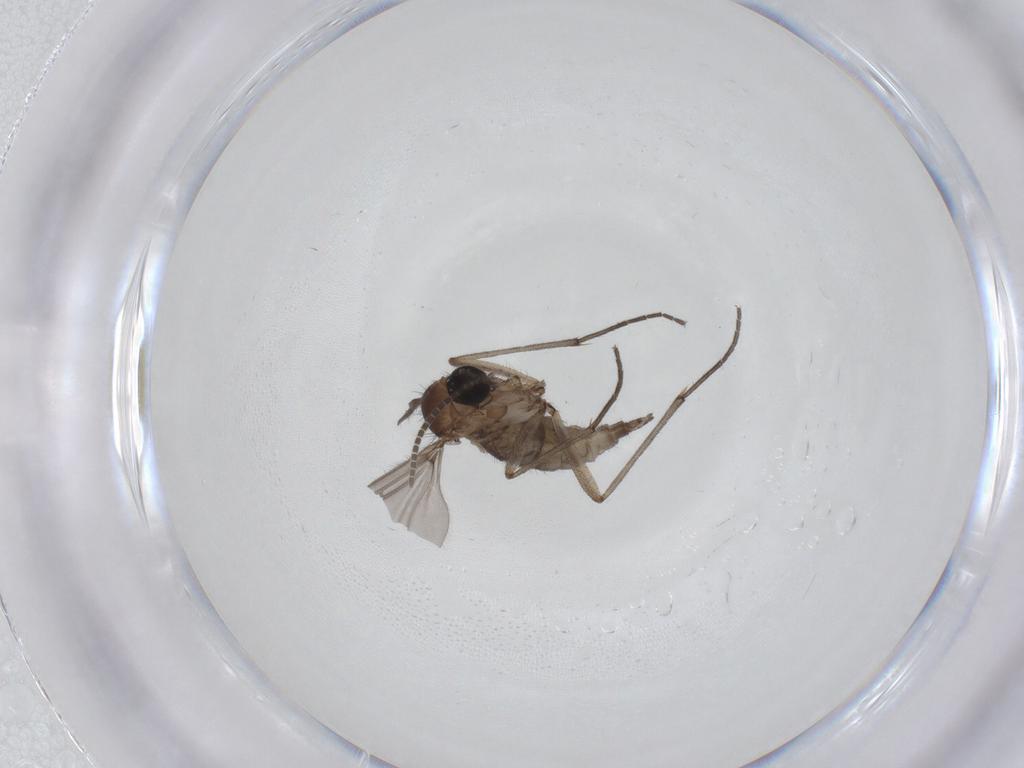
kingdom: Animalia
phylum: Arthropoda
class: Insecta
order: Diptera
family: Sciaridae
